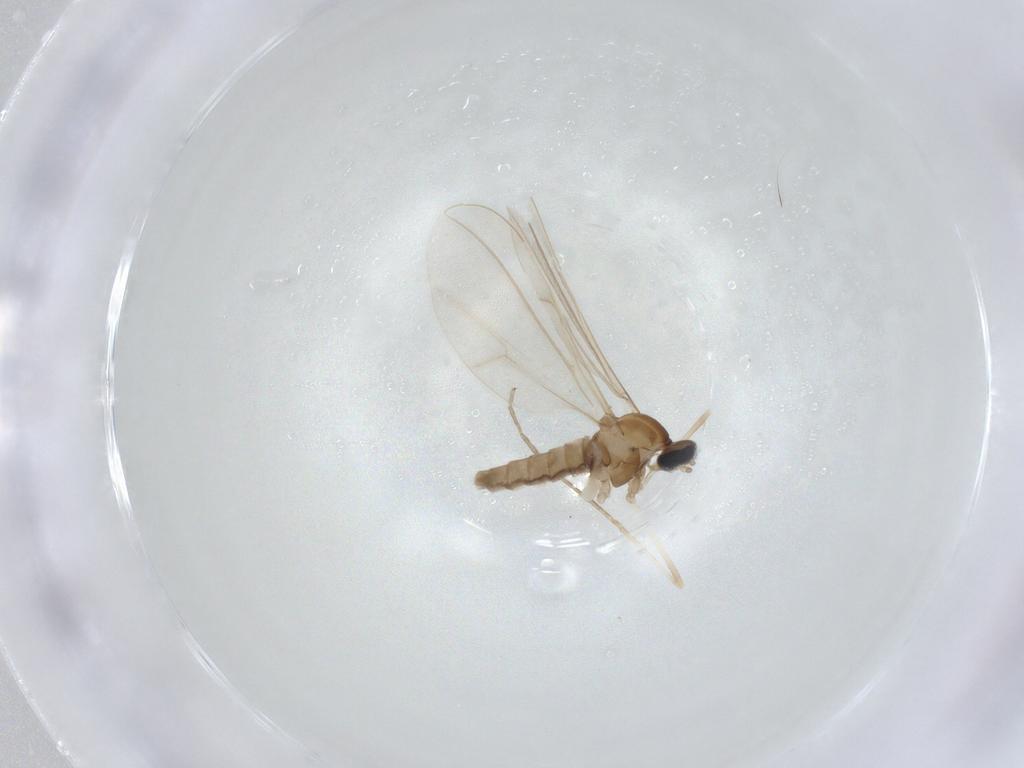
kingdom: Animalia
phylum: Arthropoda
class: Insecta
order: Diptera
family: Cecidomyiidae
